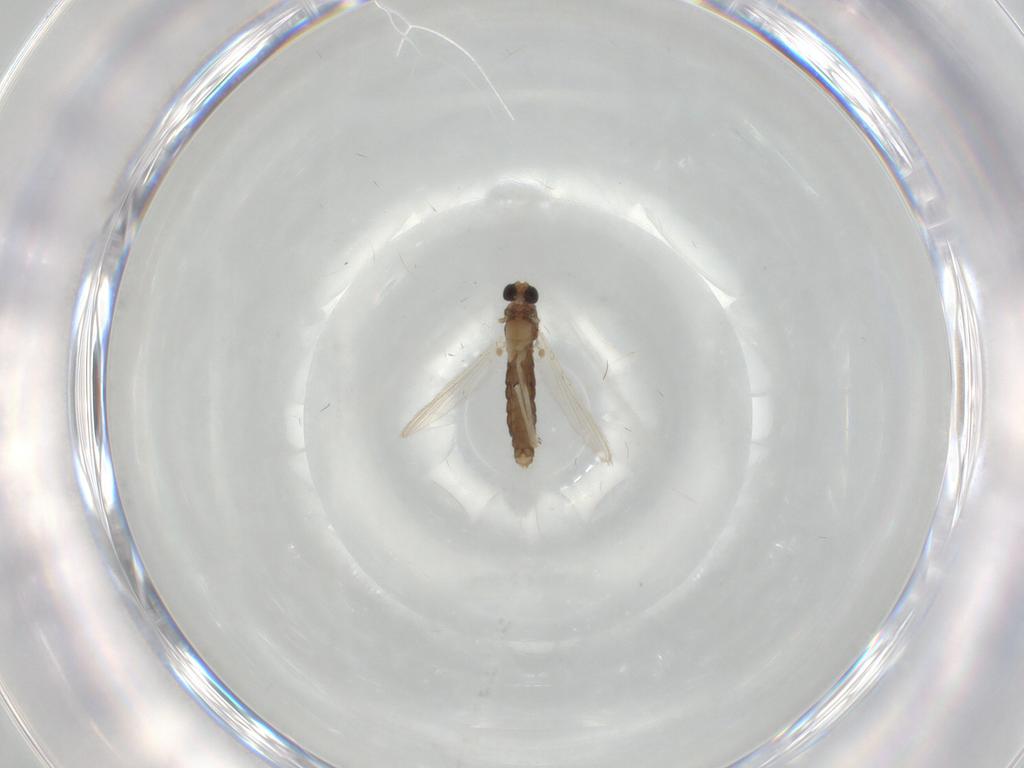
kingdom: Animalia
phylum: Arthropoda
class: Insecta
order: Diptera
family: Chironomidae
